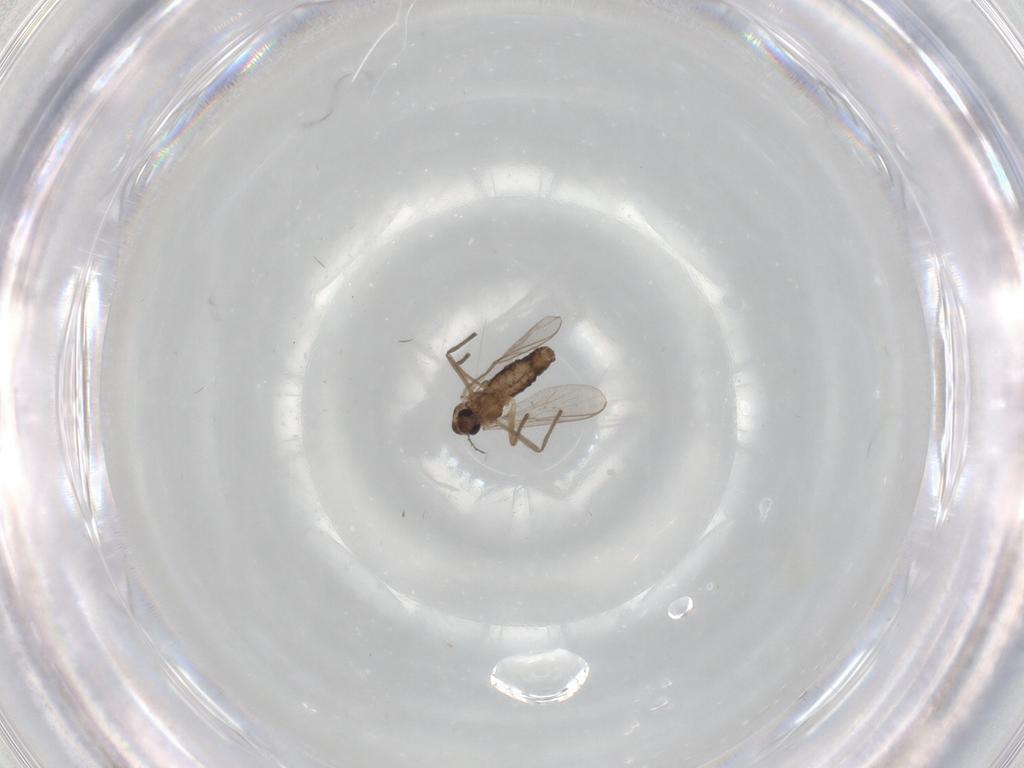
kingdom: Animalia
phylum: Arthropoda
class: Insecta
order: Diptera
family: Chironomidae
